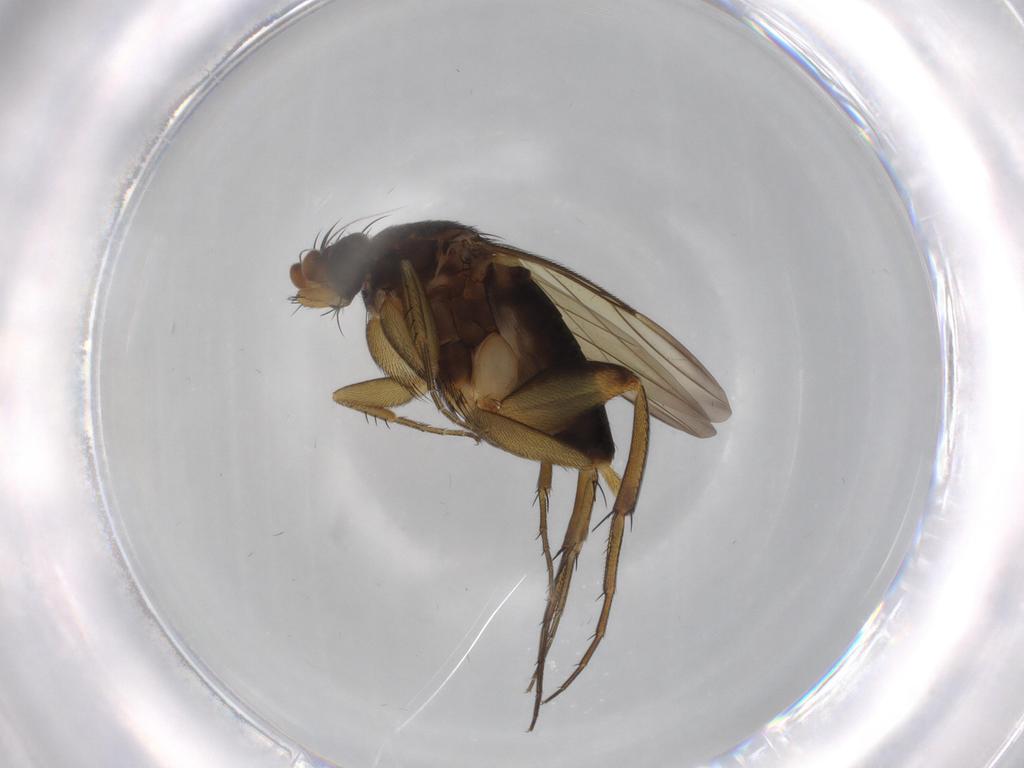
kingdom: Animalia
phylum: Arthropoda
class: Insecta
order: Diptera
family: Phoridae
